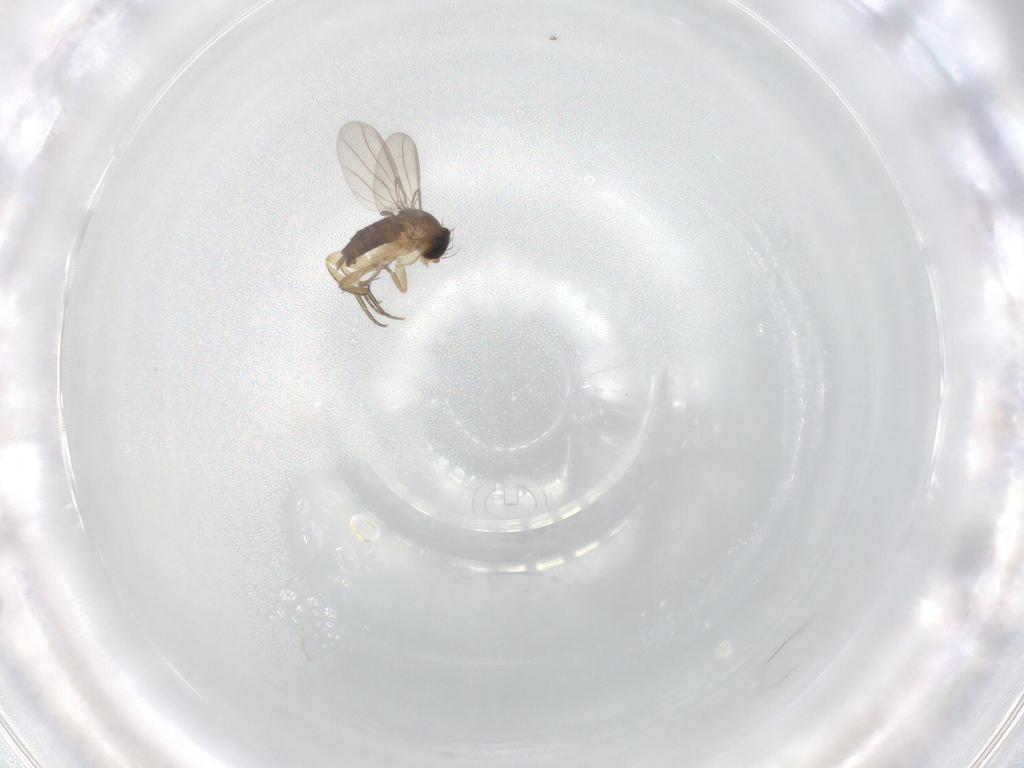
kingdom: Animalia
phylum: Arthropoda
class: Insecta
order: Diptera
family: Phoridae
